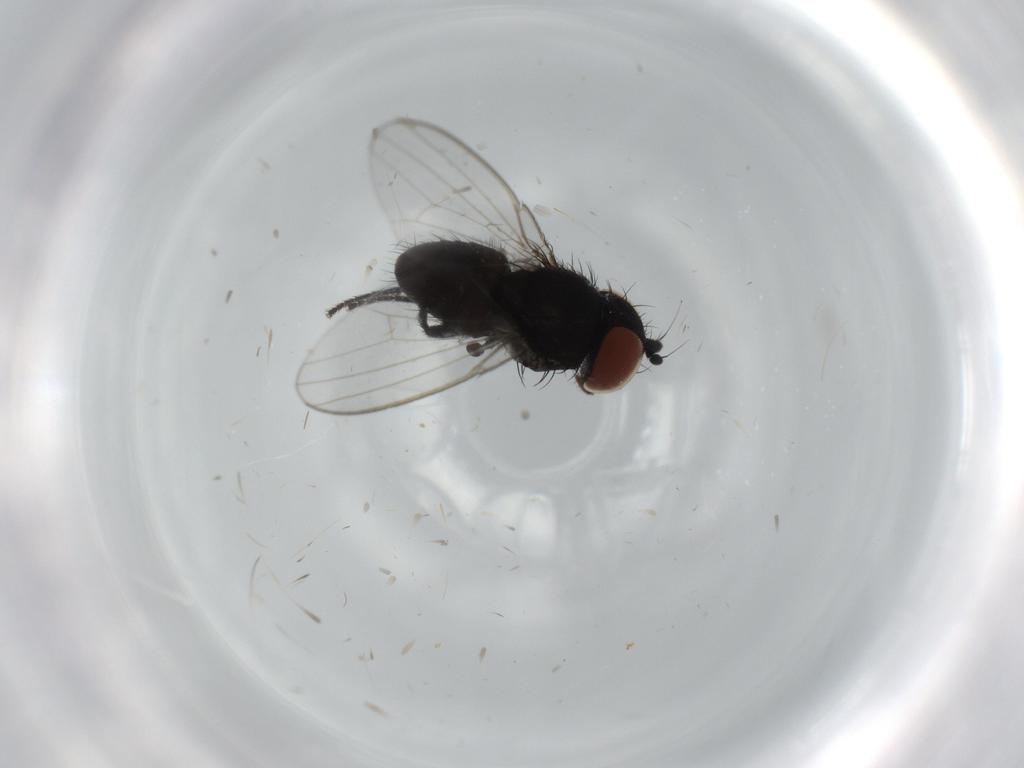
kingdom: Animalia
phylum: Arthropoda
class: Insecta
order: Diptera
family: Milichiidae
